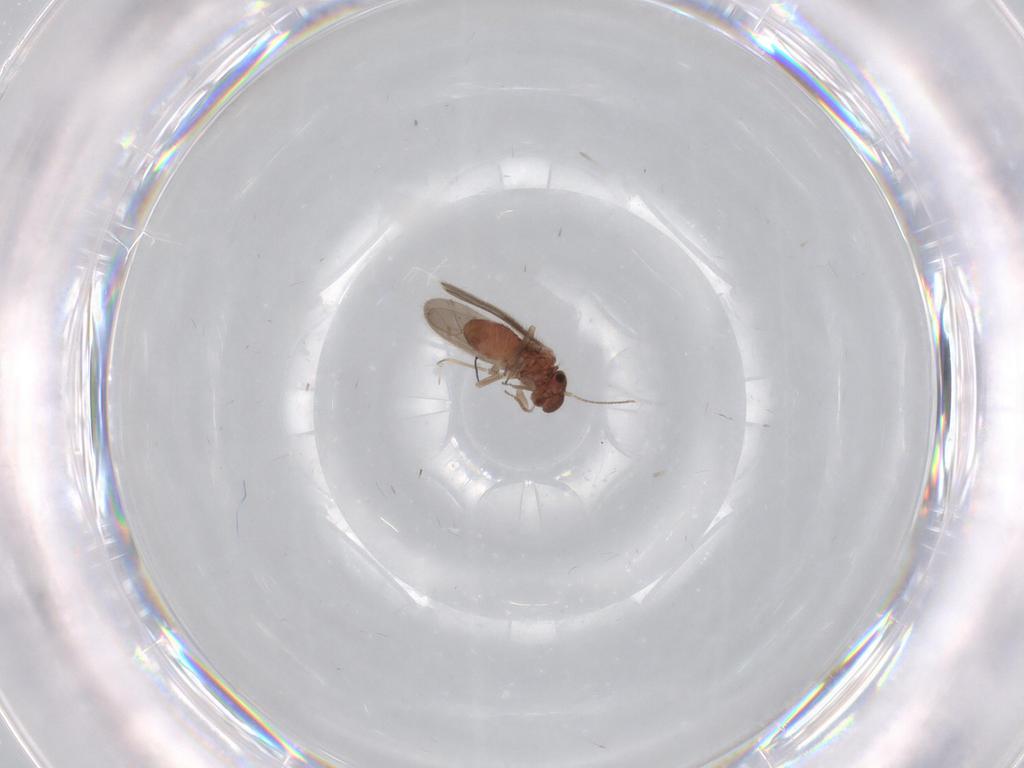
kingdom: Animalia
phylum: Arthropoda
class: Insecta
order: Psocodea
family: Archipsocidae
